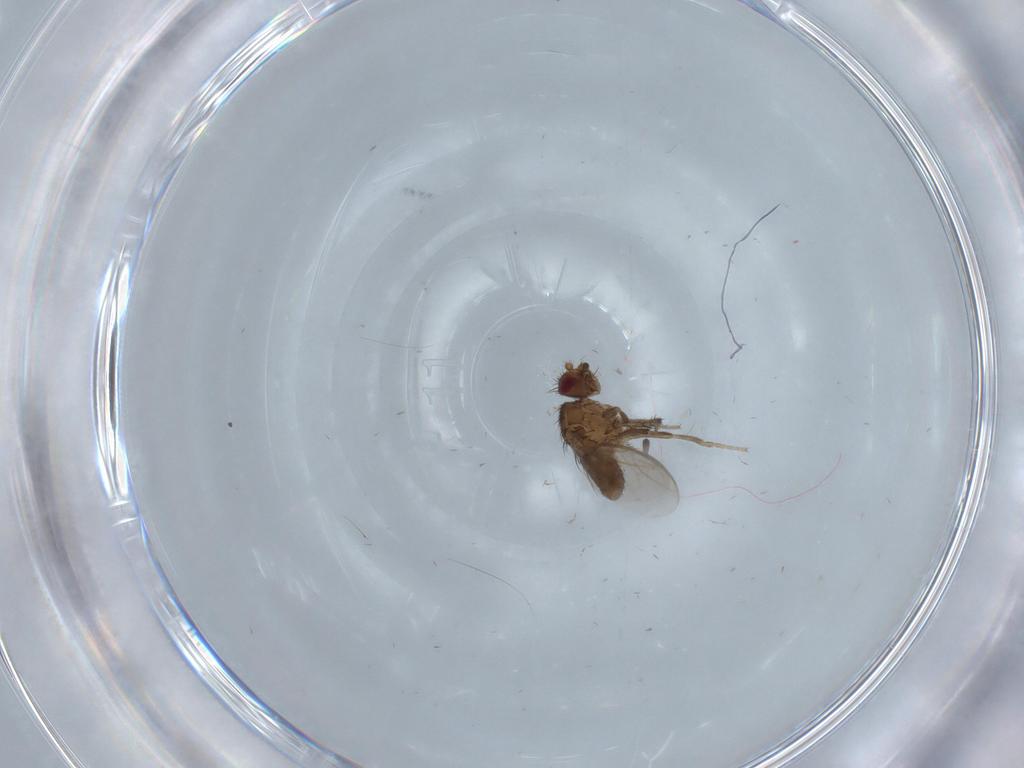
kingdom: Animalia
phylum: Arthropoda
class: Insecta
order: Diptera
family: Sphaeroceridae
